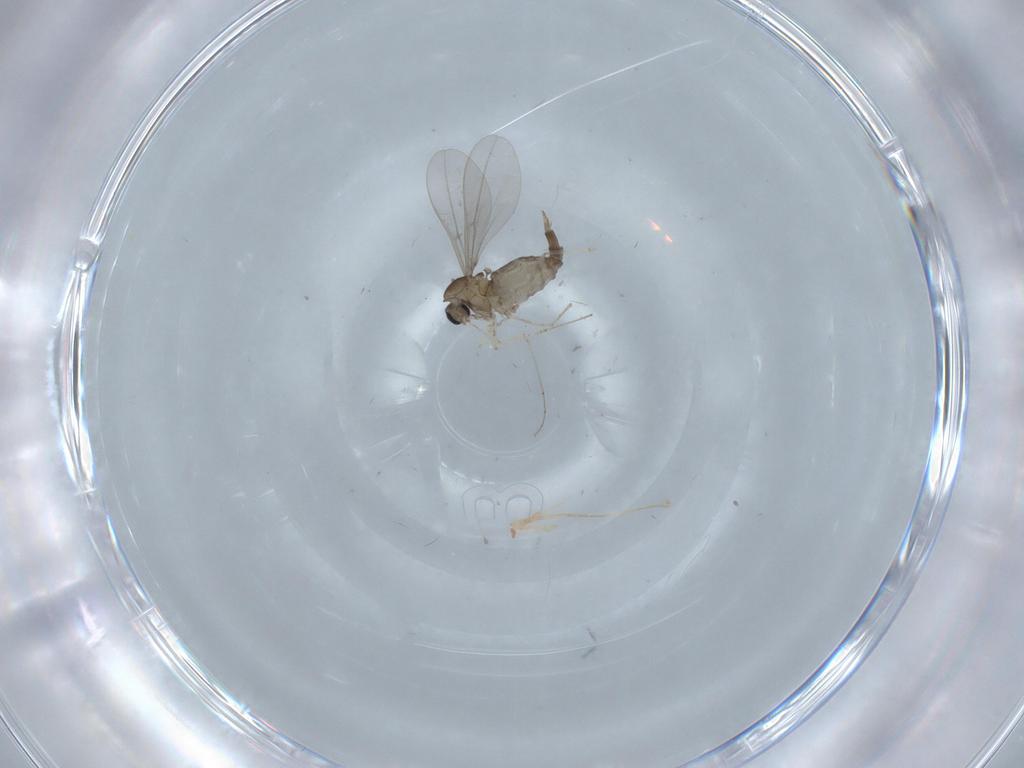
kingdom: Animalia
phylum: Arthropoda
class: Insecta
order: Diptera
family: Cecidomyiidae
